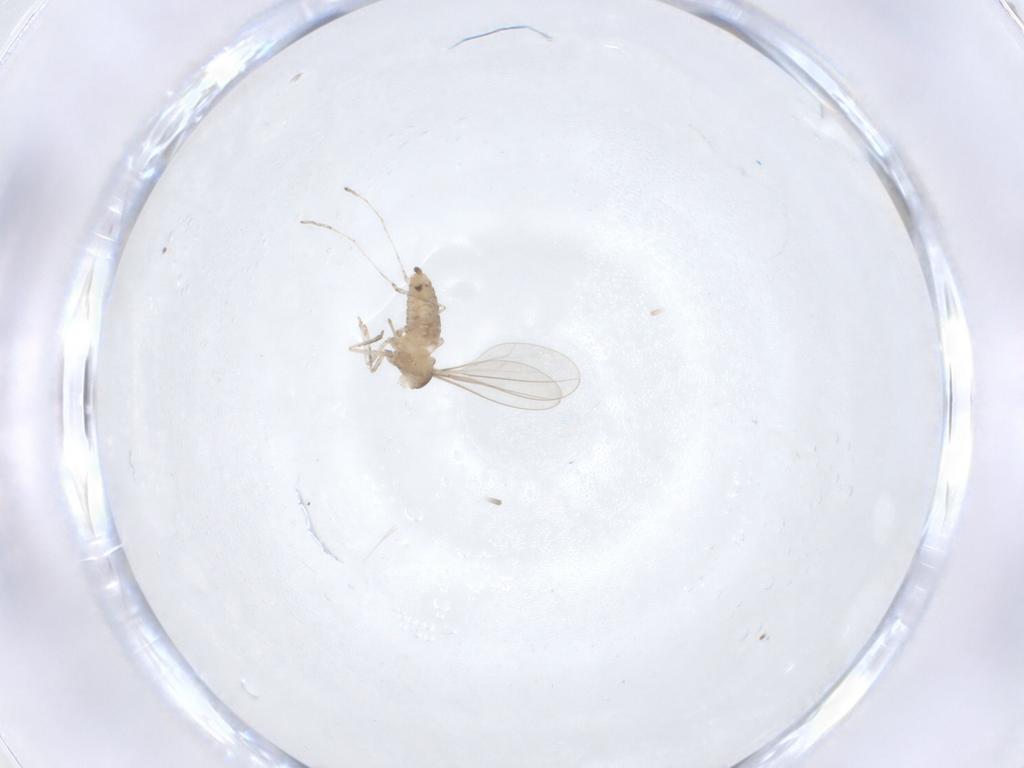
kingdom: Animalia
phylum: Arthropoda
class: Insecta
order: Diptera
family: Cecidomyiidae
